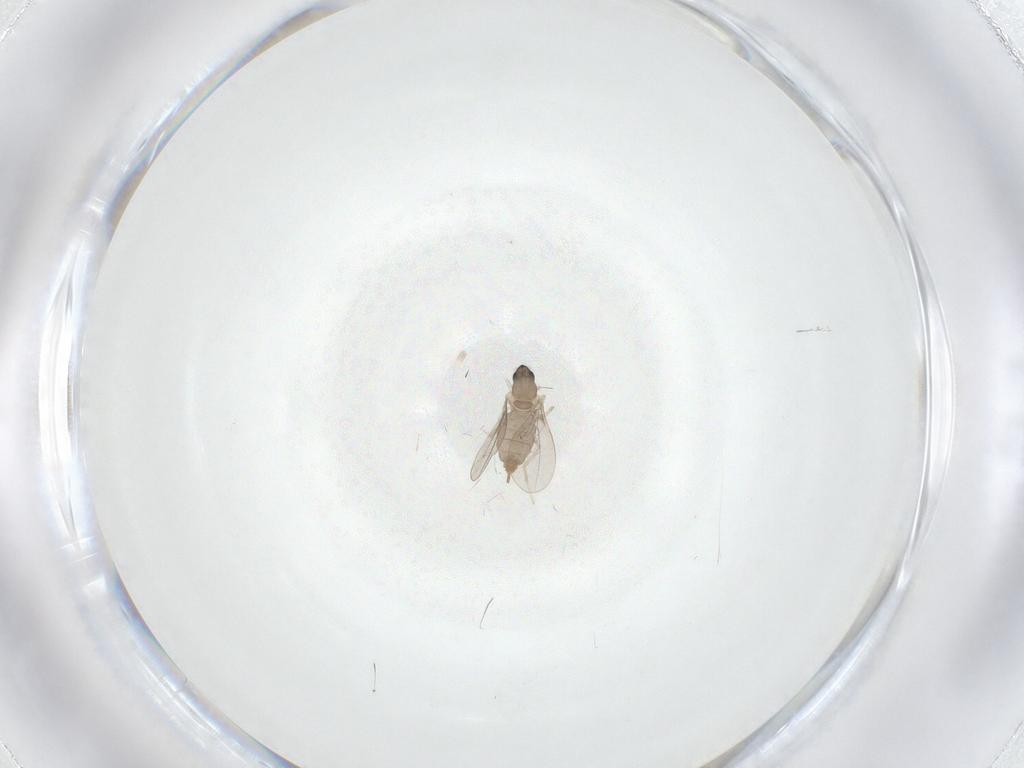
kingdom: Animalia
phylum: Arthropoda
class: Insecta
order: Diptera
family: Cecidomyiidae
